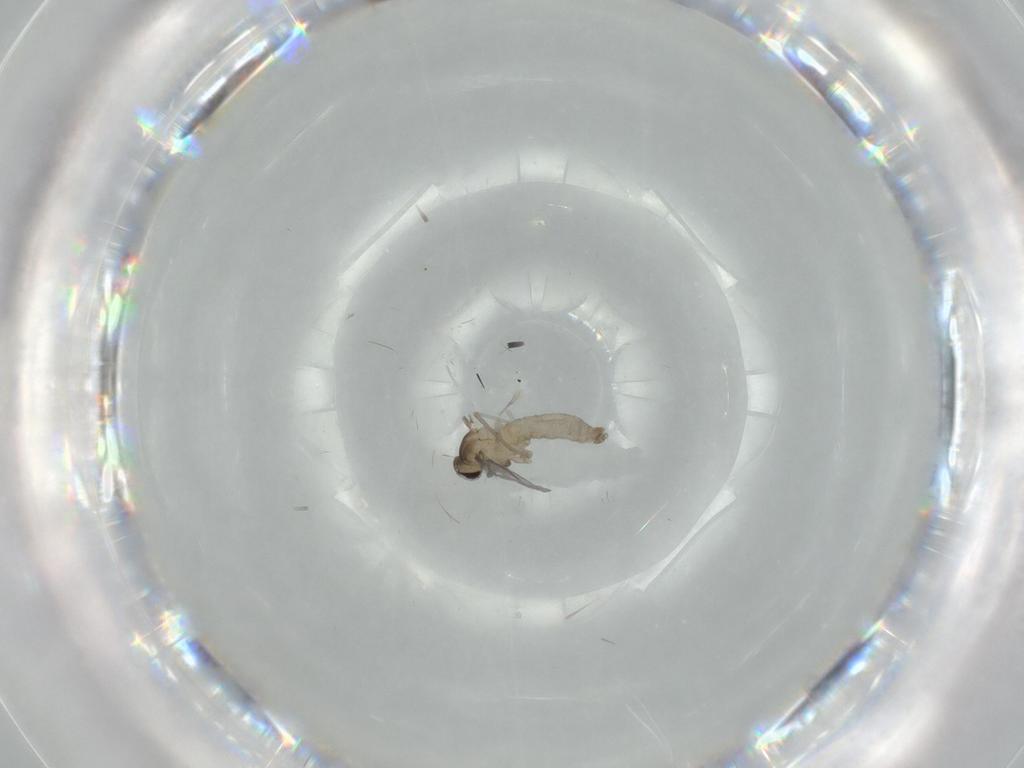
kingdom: Animalia
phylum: Arthropoda
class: Insecta
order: Diptera
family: Cecidomyiidae
